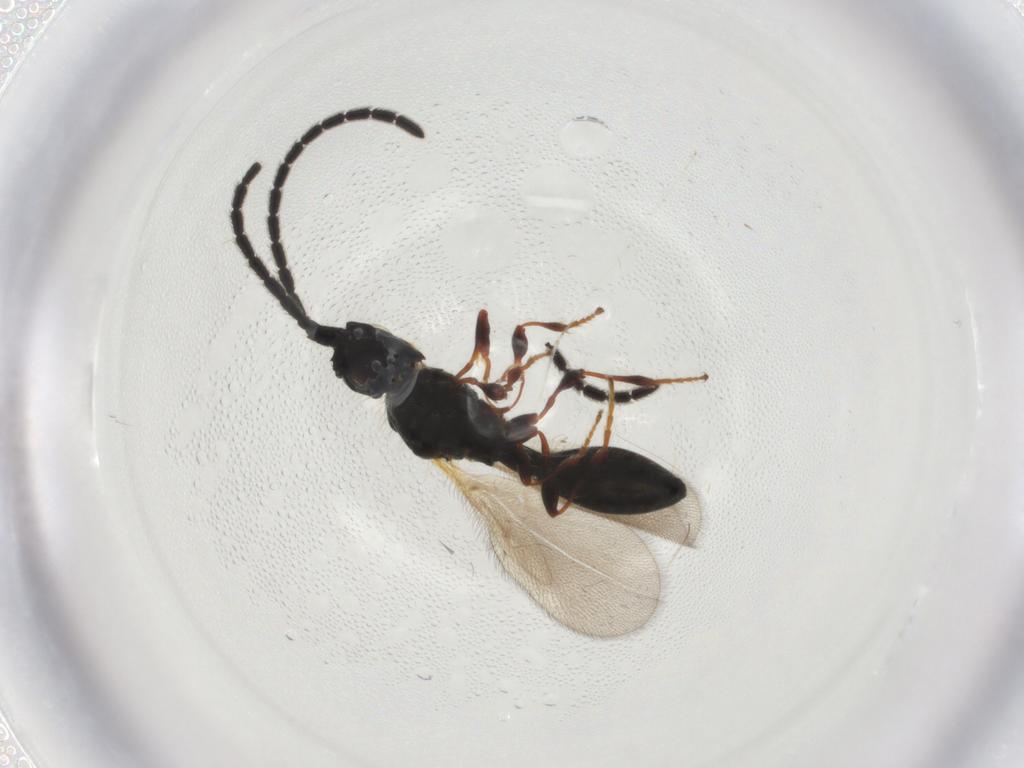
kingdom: Animalia
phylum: Arthropoda
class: Insecta
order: Hymenoptera
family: Diapriidae
